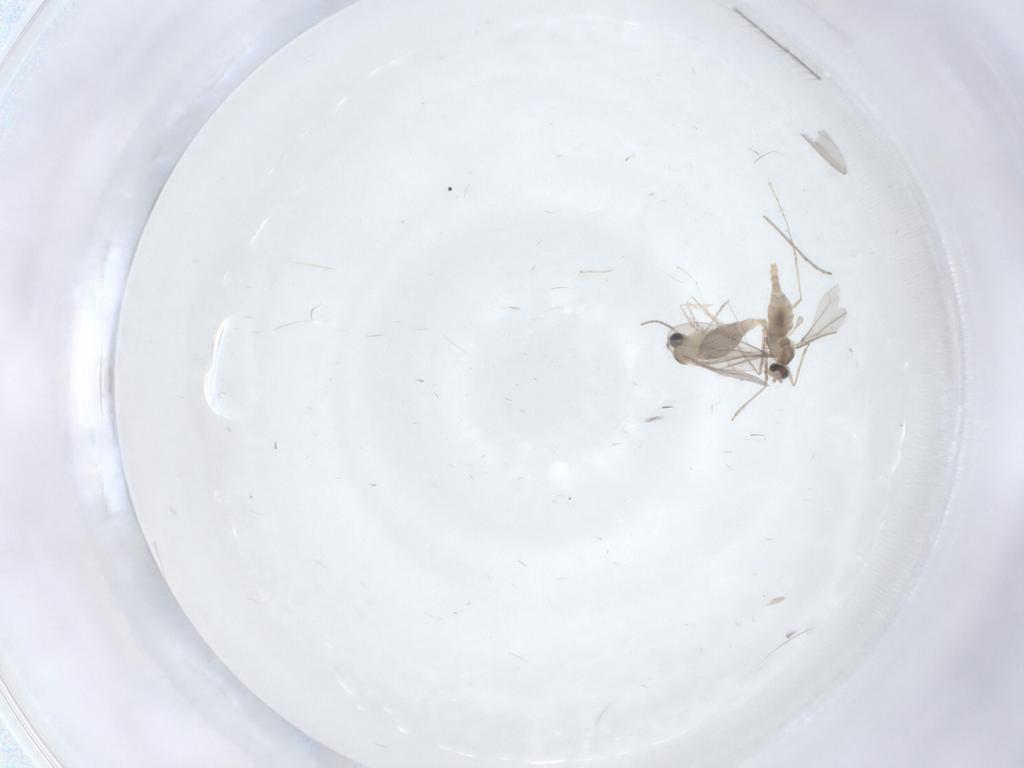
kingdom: Animalia
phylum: Arthropoda
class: Insecta
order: Diptera
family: Cecidomyiidae
